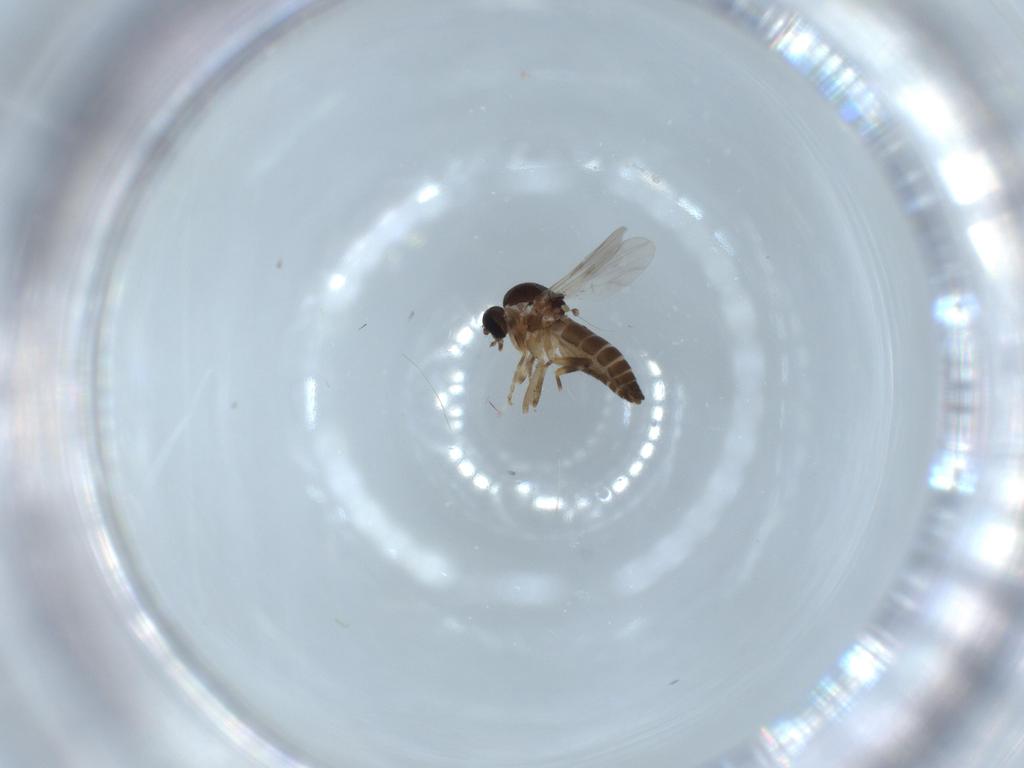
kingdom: Animalia
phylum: Arthropoda
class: Insecta
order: Diptera
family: Ceratopogonidae
